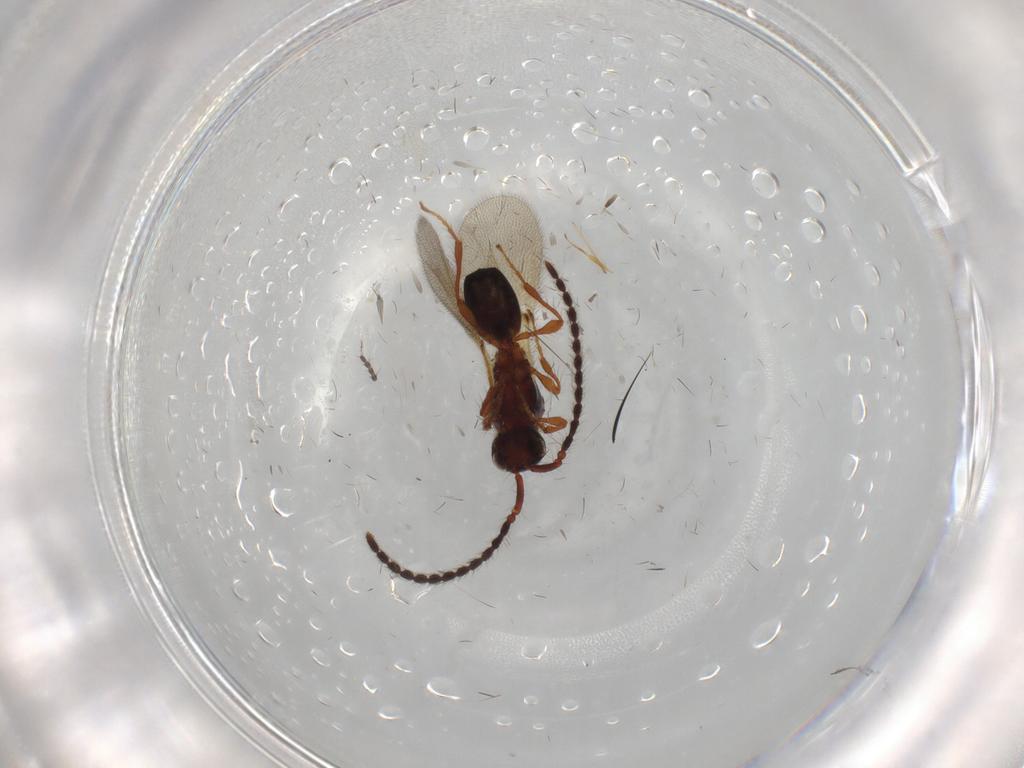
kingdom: Animalia
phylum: Arthropoda
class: Insecta
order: Hymenoptera
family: Diapriidae
